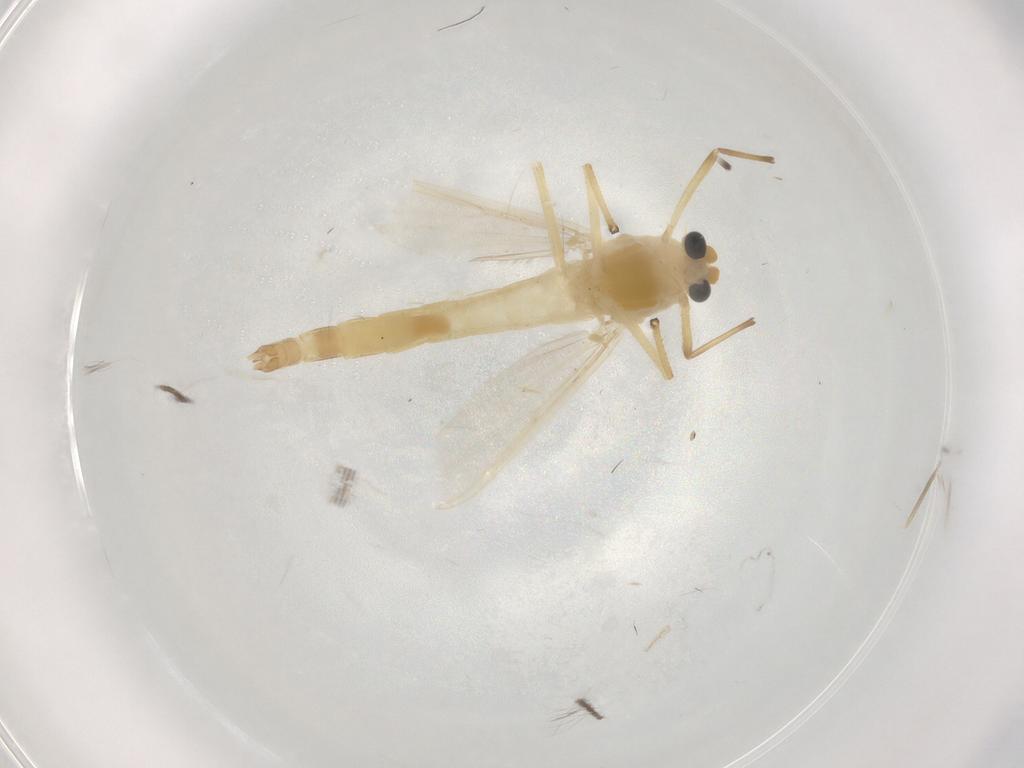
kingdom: Animalia
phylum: Arthropoda
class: Insecta
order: Diptera
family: Chironomidae
